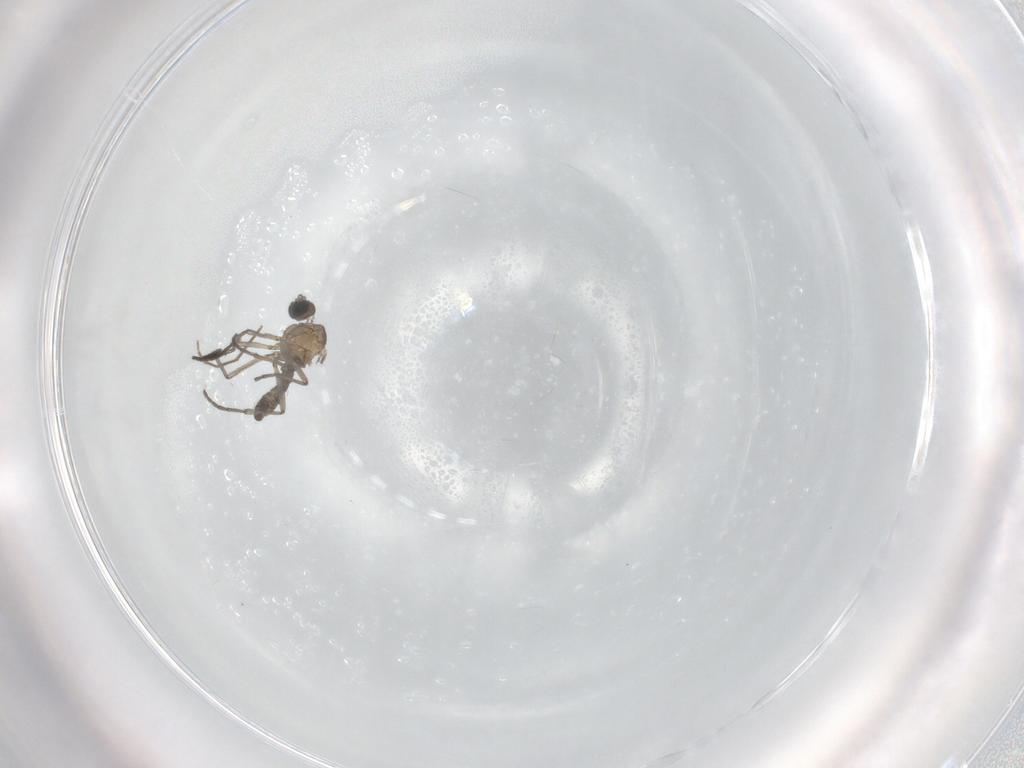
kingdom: Animalia
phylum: Arthropoda
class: Insecta
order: Diptera
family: Sciaridae
